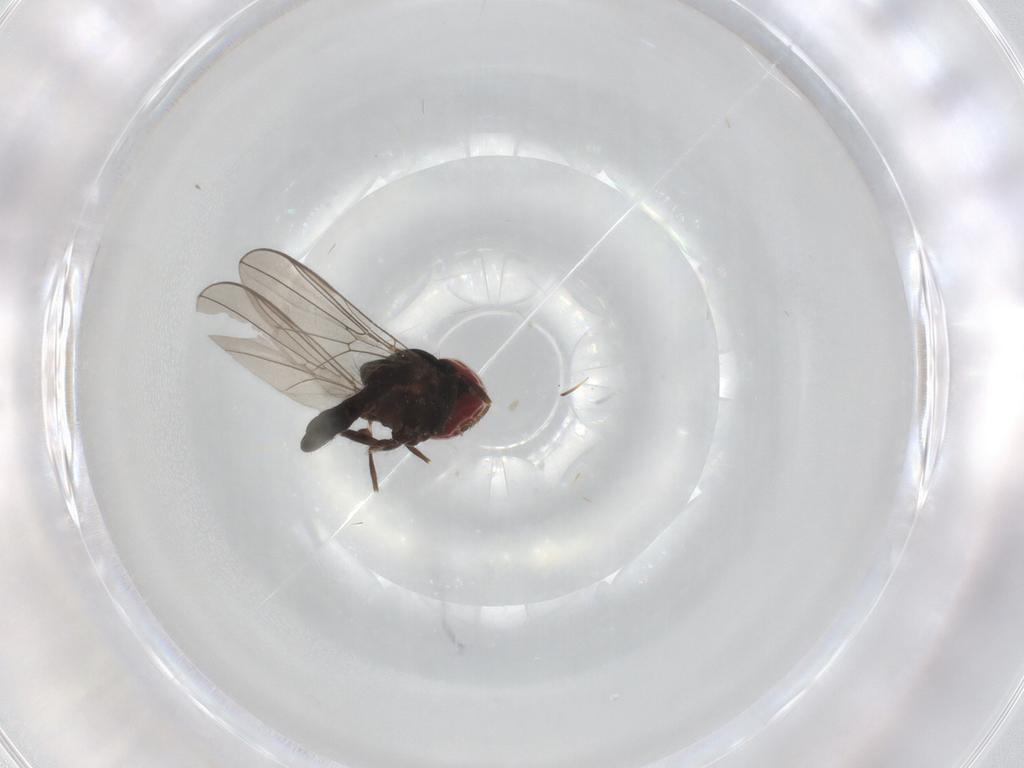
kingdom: Animalia
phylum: Arthropoda
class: Insecta
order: Diptera
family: Pipunculidae
